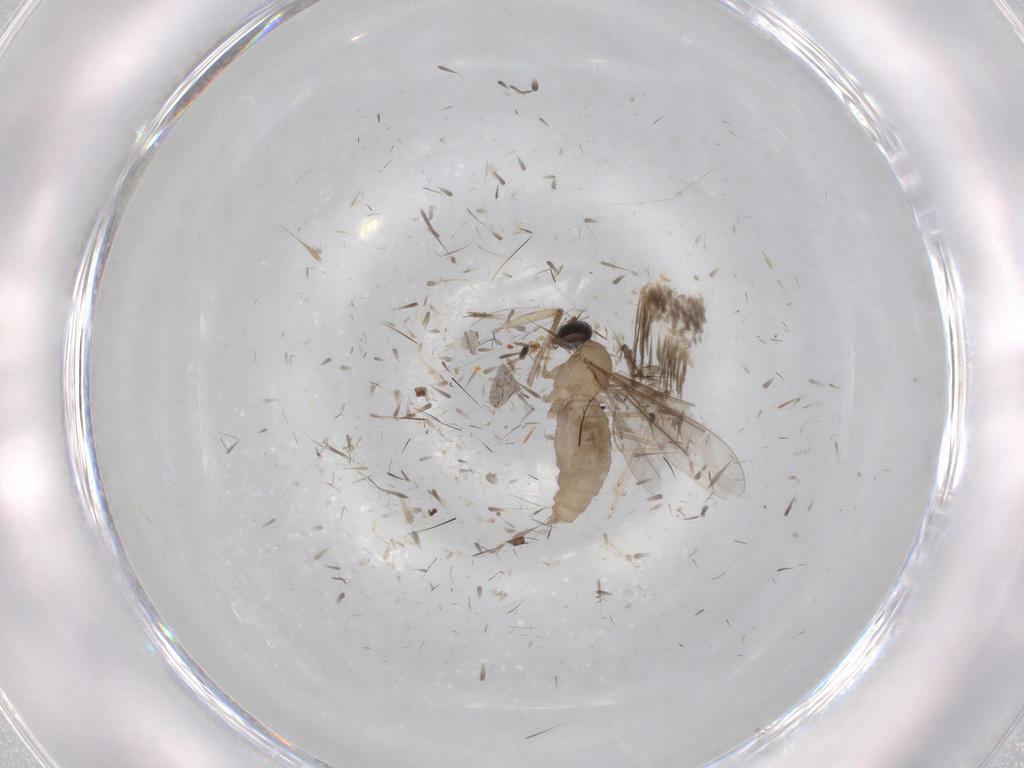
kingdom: Animalia
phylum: Arthropoda
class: Insecta
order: Diptera
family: Cecidomyiidae
